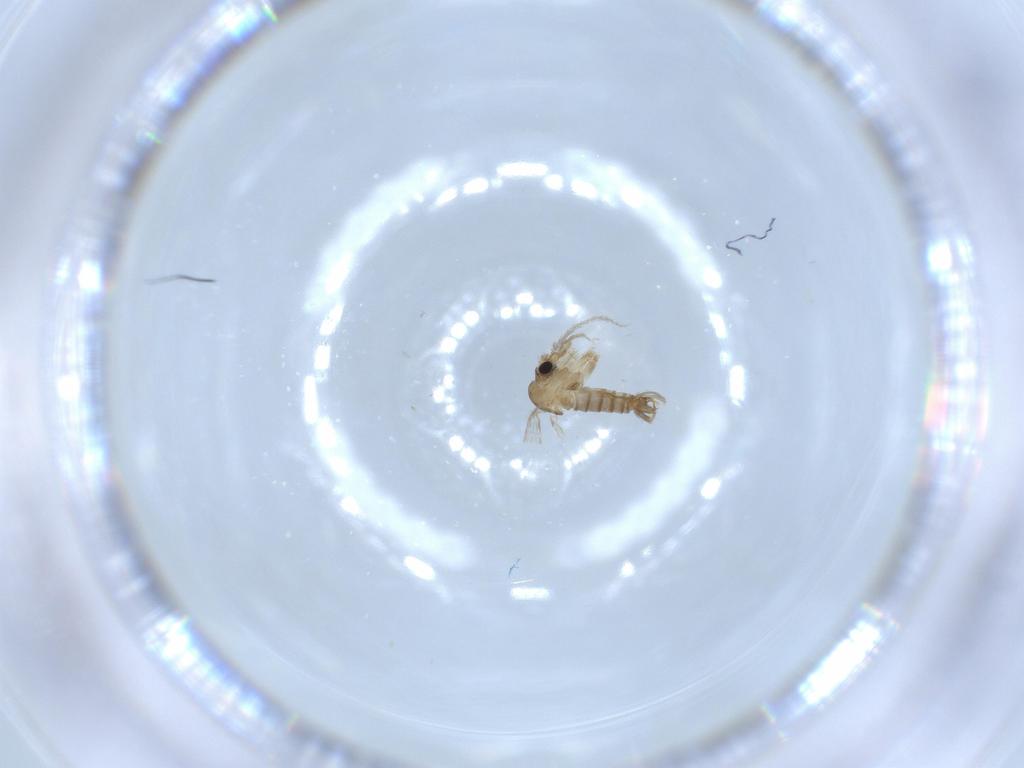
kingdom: Animalia
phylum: Arthropoda
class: Insecta
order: Diptera
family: Psychodidae
